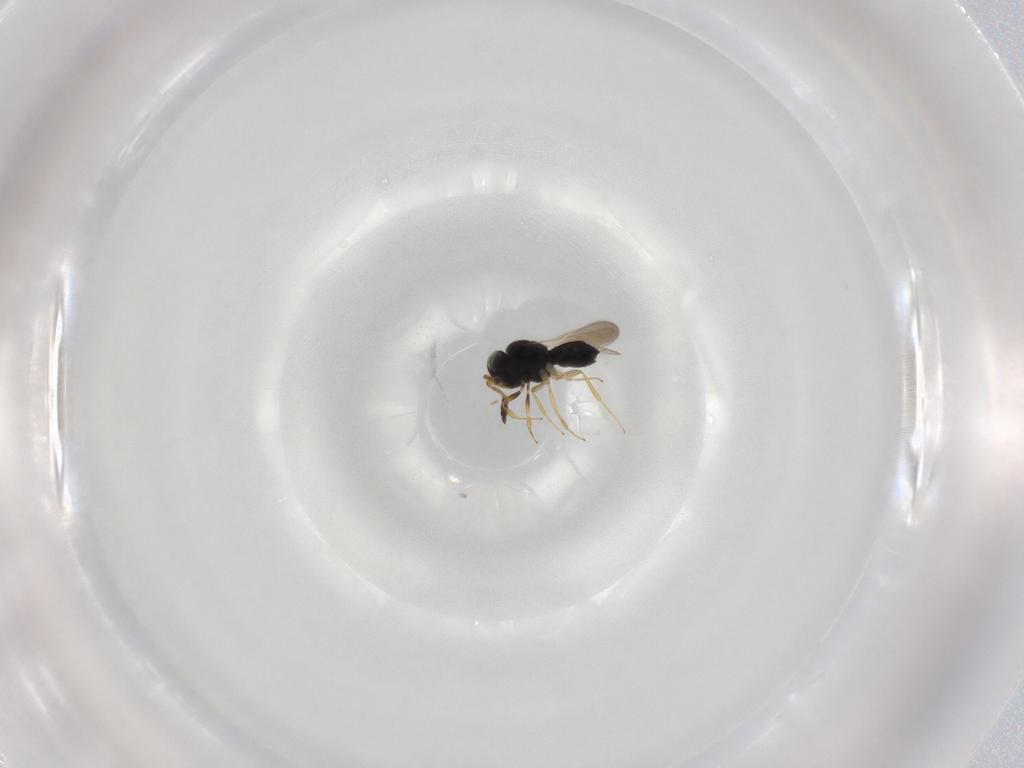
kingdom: Animalia
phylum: Arthropoda
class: Insecta
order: Hymenoptera
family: Scelionidae
